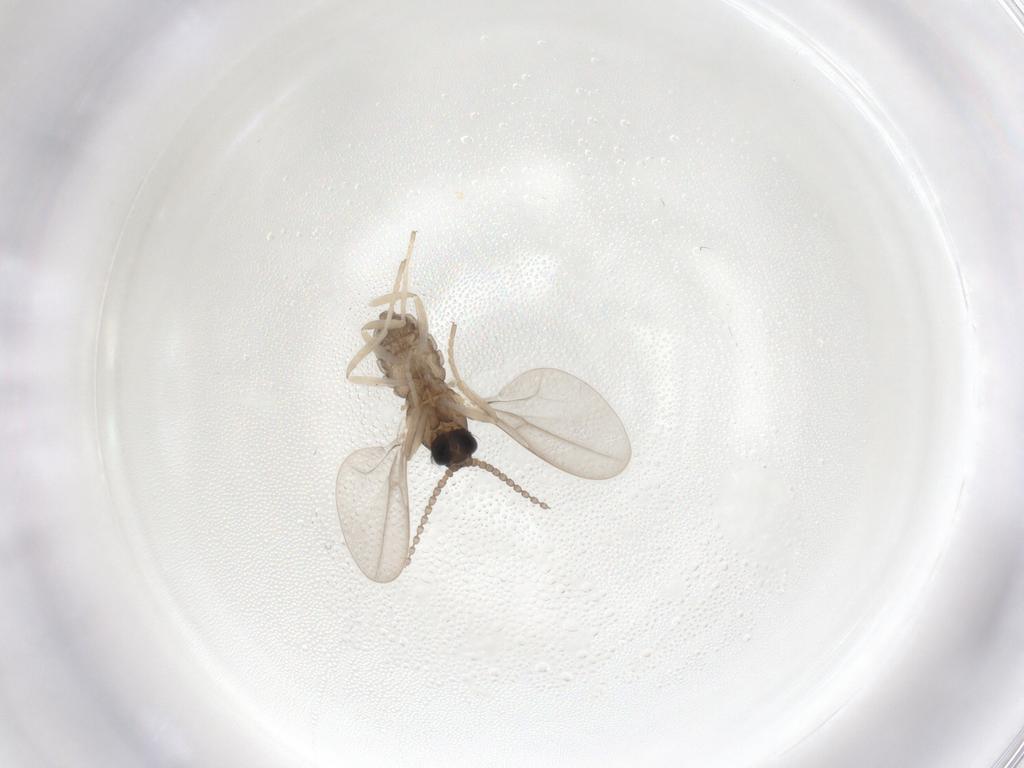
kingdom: Animalia
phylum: Arthropoda
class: Insecta
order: Diptera
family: Cecidomyiidae
